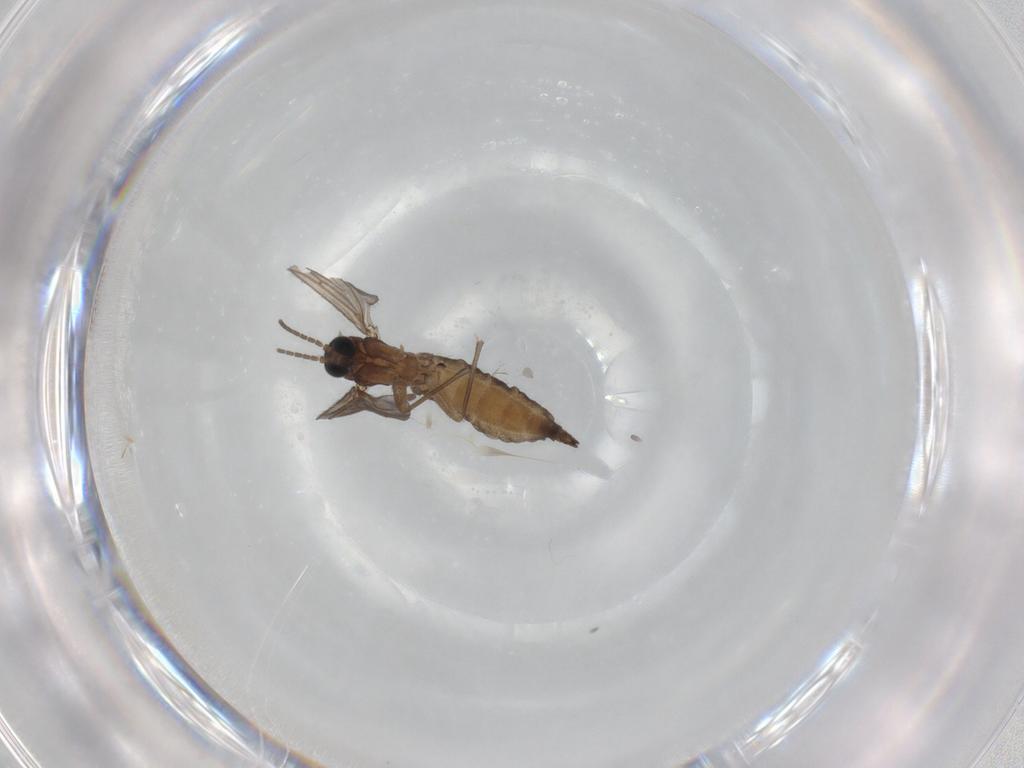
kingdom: Animalia
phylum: Arthropoda
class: Insecta
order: Diptera
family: Sciaridae
